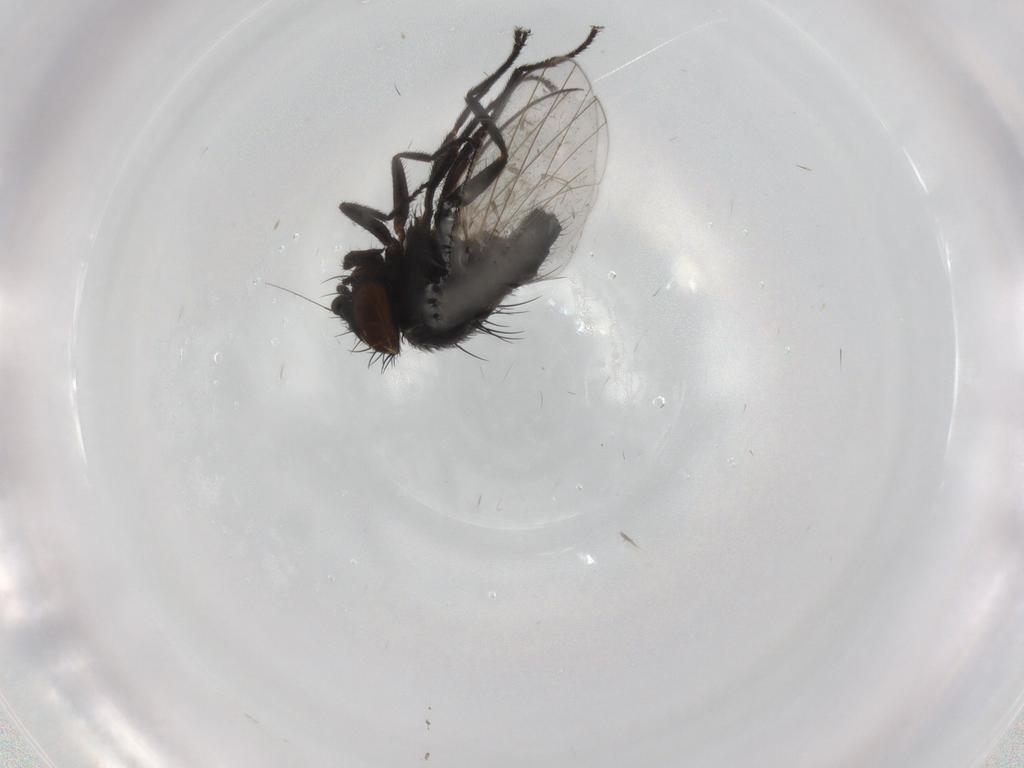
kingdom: Animalia
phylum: Arthropoda
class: Insecta
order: Diptera
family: Milichiidae
